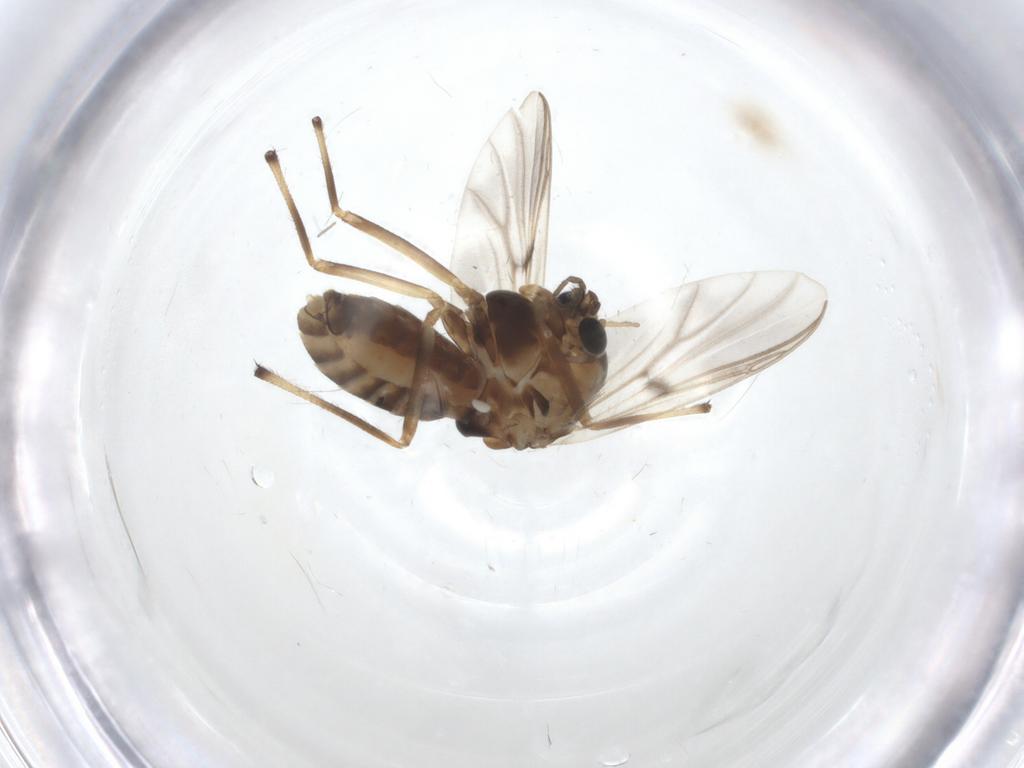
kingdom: Animalia
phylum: Arthropoda
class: Insecta
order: Diptera
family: Chironomidae
